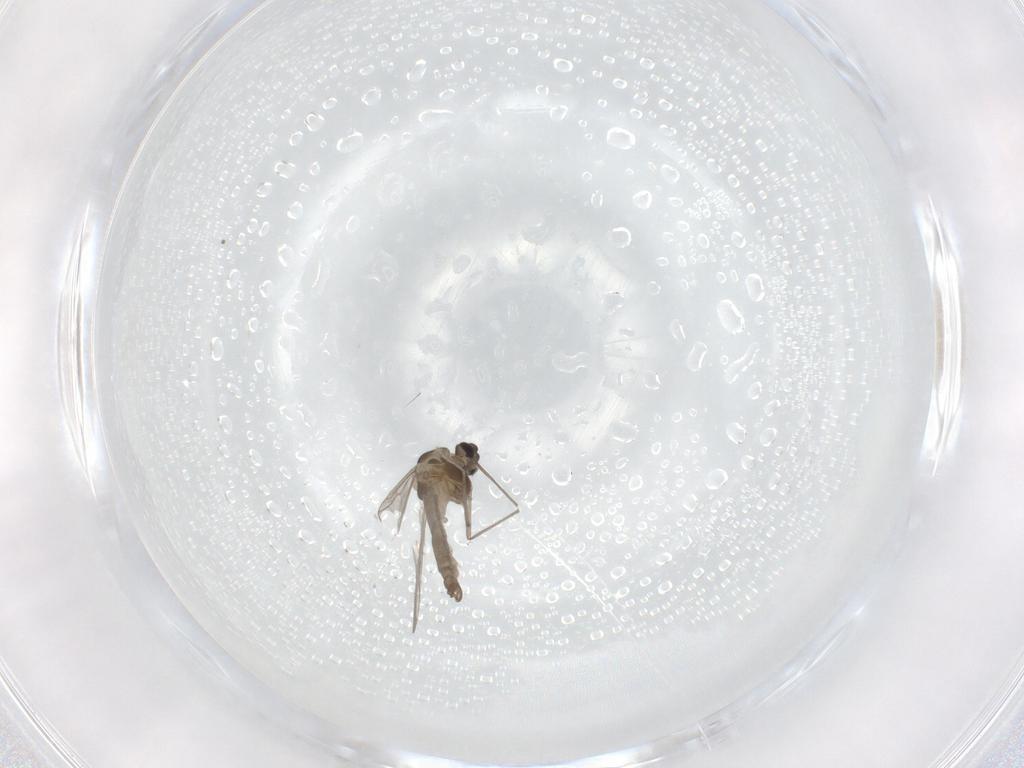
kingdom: Animalia
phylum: Arthropoda
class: Insecta
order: Diptera
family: Chironomidae
